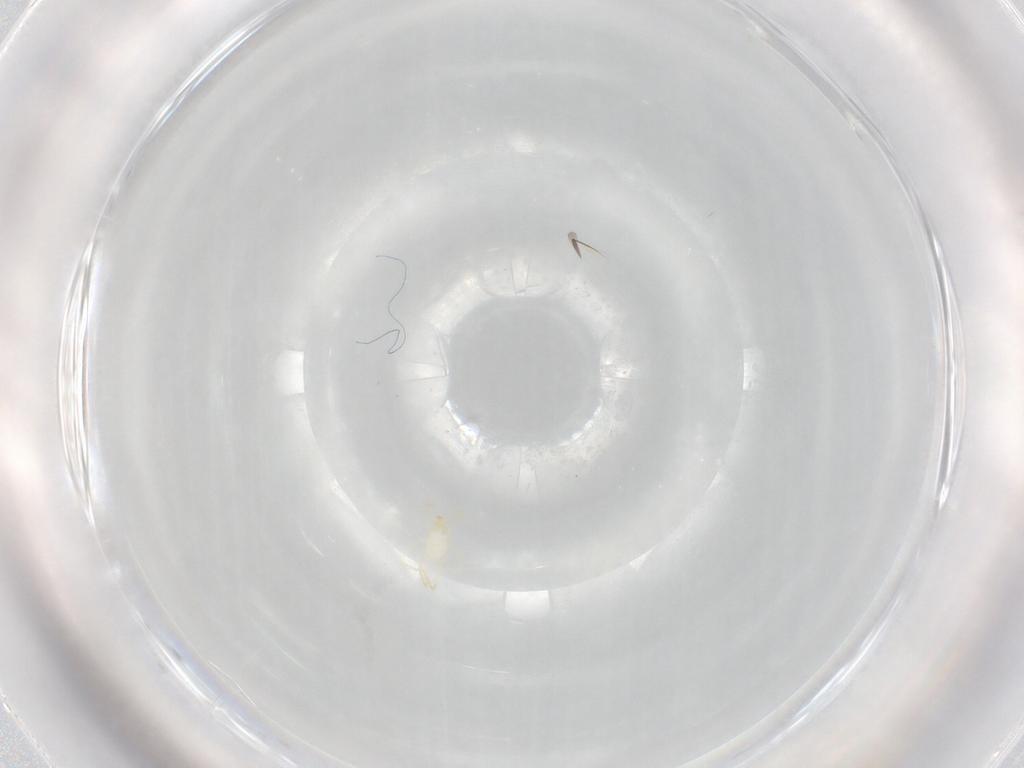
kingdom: Animalia
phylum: Arthropoda
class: Arachnida
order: Trombidiformes
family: Erythraeidae
